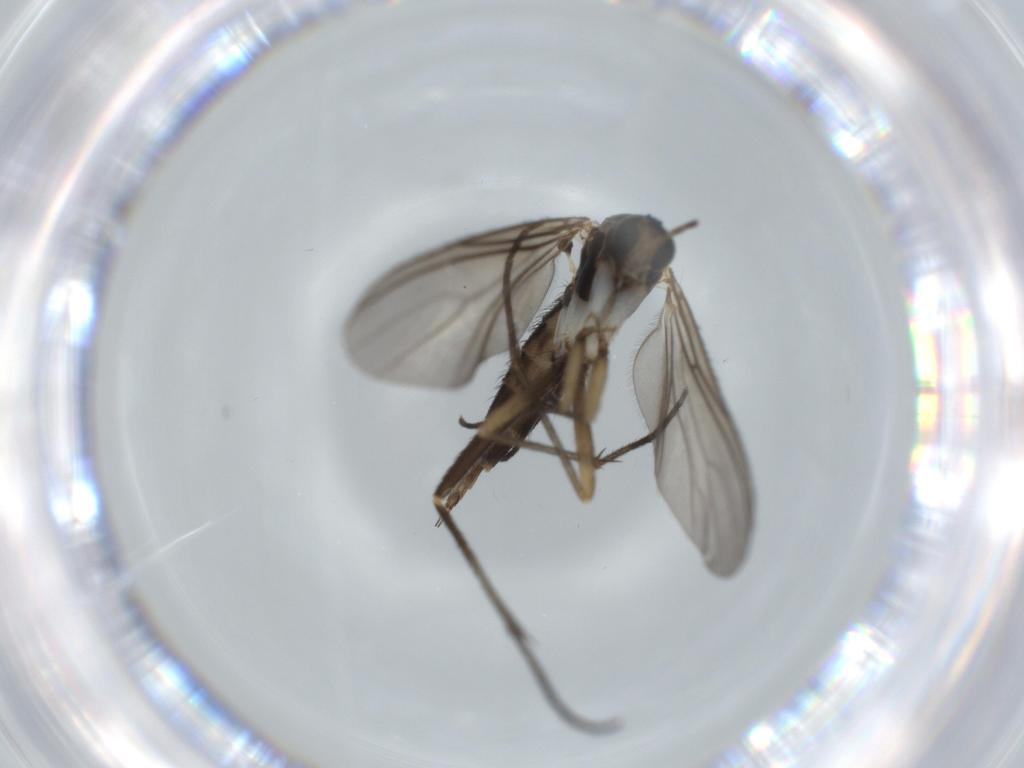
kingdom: Animalia
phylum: Arthropoda
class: Insecta
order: Diptera
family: Sciaridae
